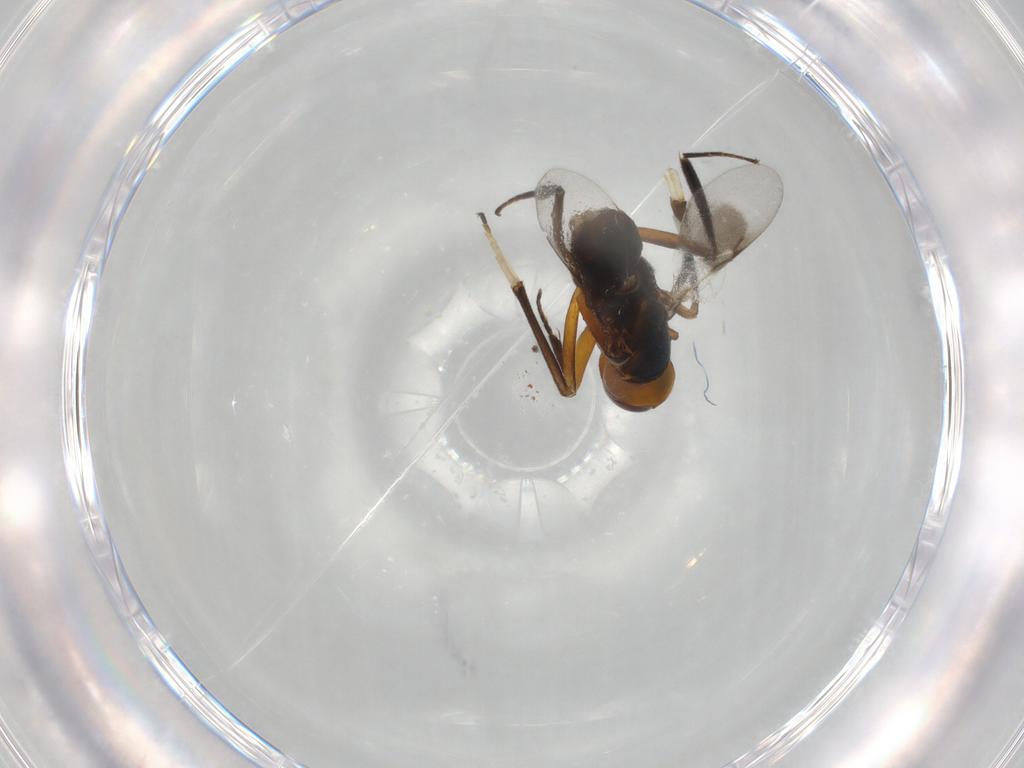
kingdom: Animalia
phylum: Arthropoda
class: Insecta
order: Hymenoptera
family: Encyrtidae
